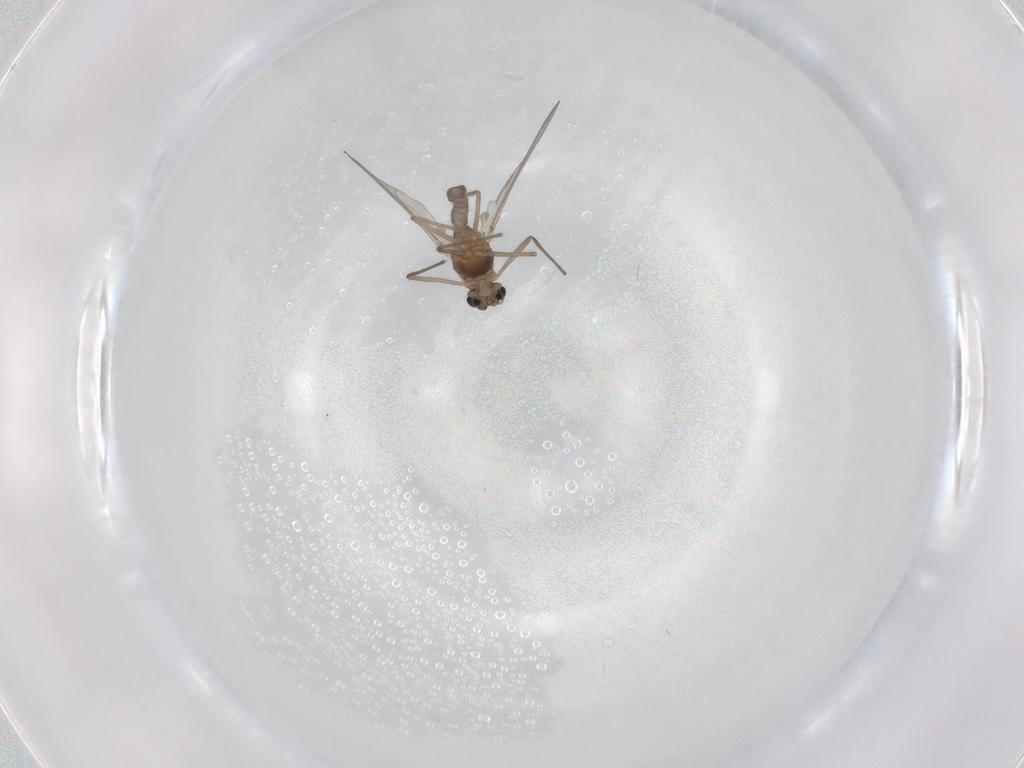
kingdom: Animalia
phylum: Arthropoda
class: Insecta
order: Diptera
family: Chironomidae
